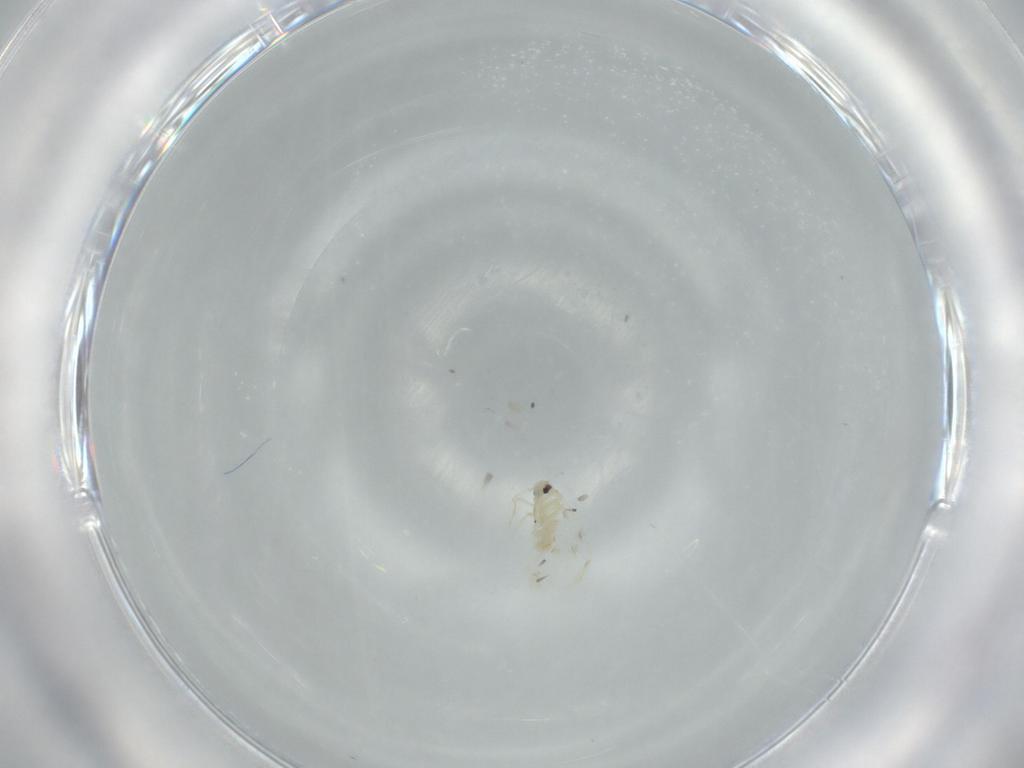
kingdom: Animalia
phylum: Arthropoda
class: Insecta
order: Hemiptera
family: Aleyrodidae
